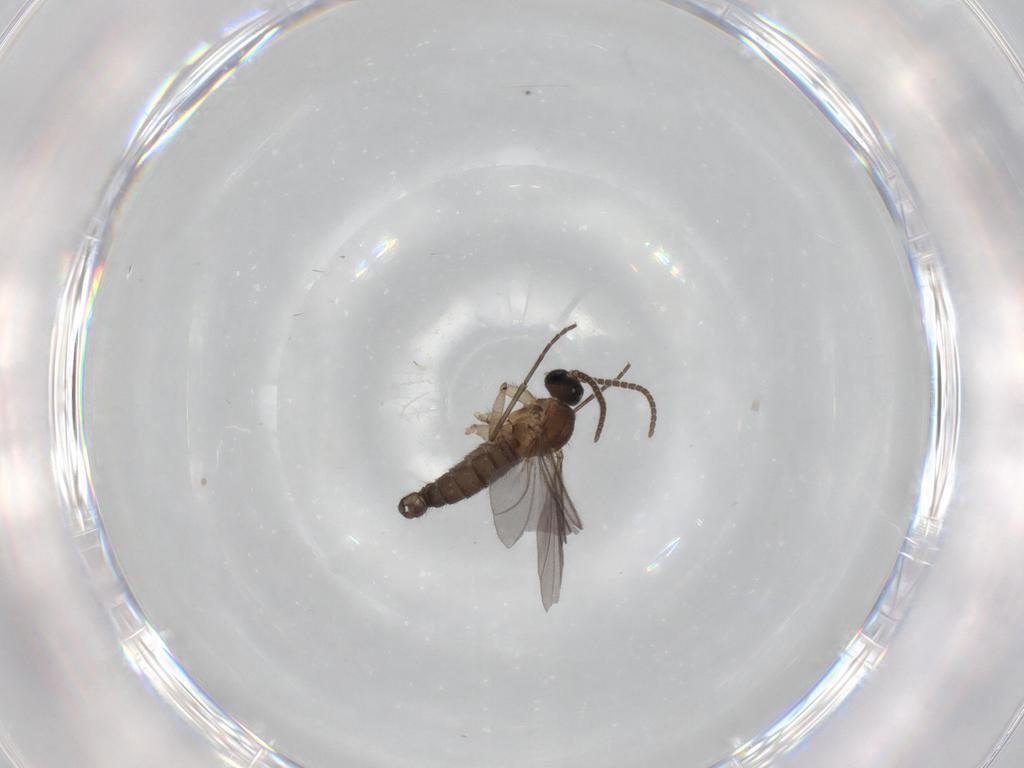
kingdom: Animalia
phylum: Arthropoda
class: Insecta
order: Diptera
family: Sciaridae
